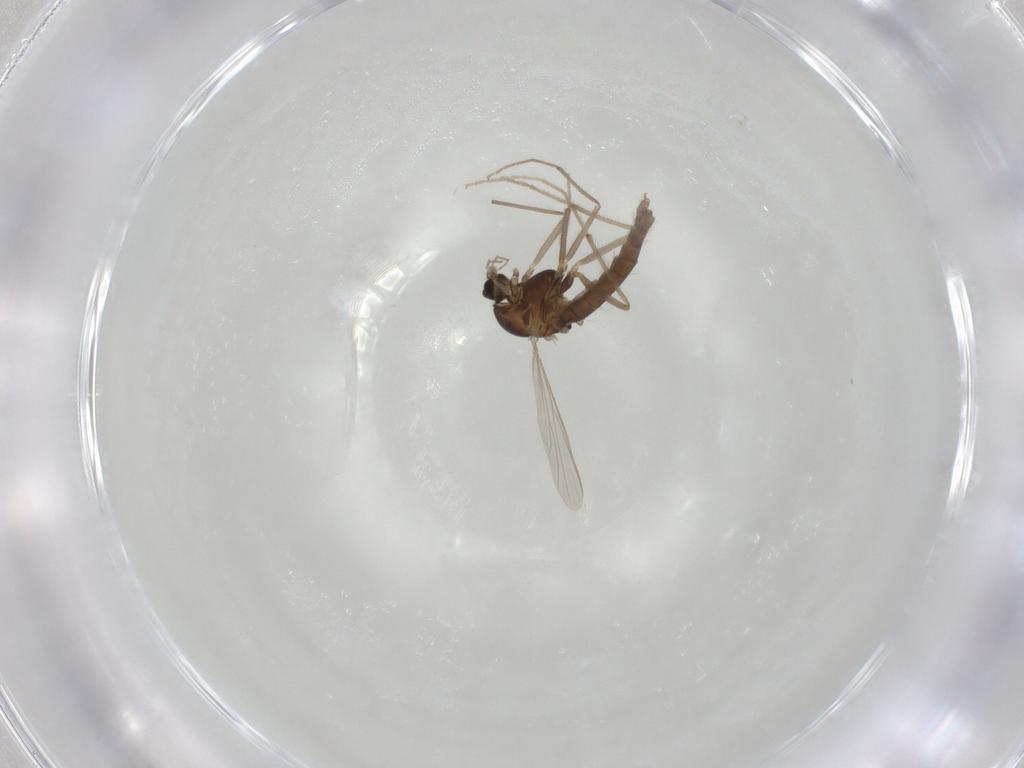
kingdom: Animalia
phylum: Arthropoda
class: Insecta
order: Diptera
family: Chironomidae
